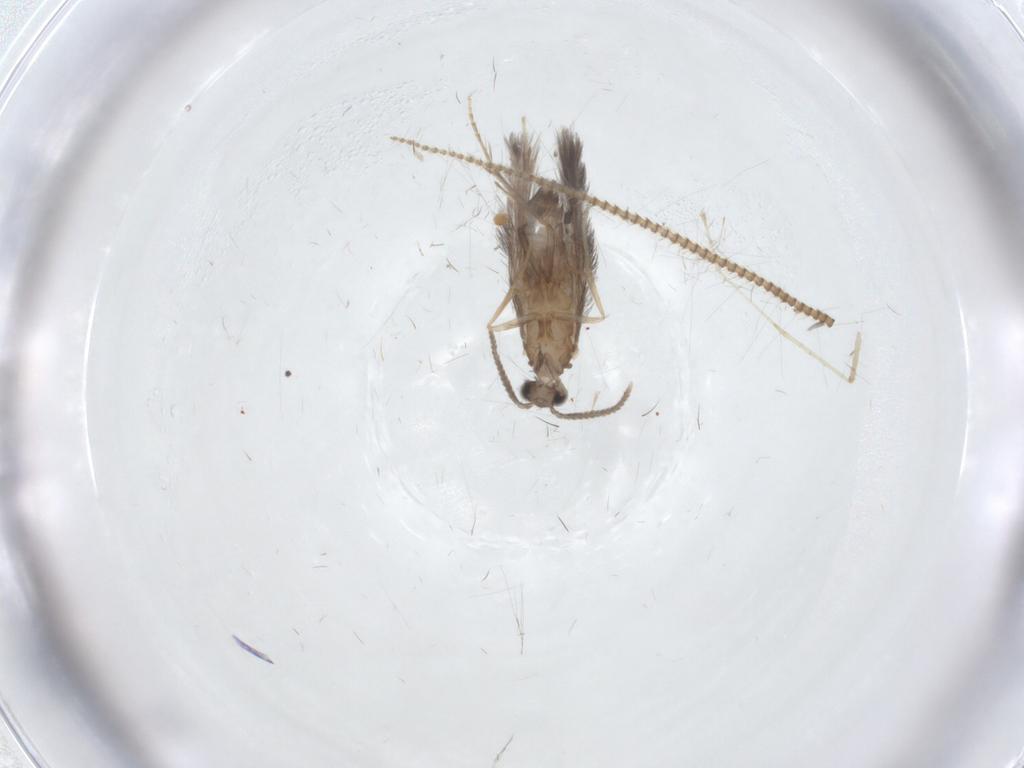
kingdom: Animalia
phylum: Arthropoda
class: Insecta
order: Trichoptera
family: Hydroptilidae
